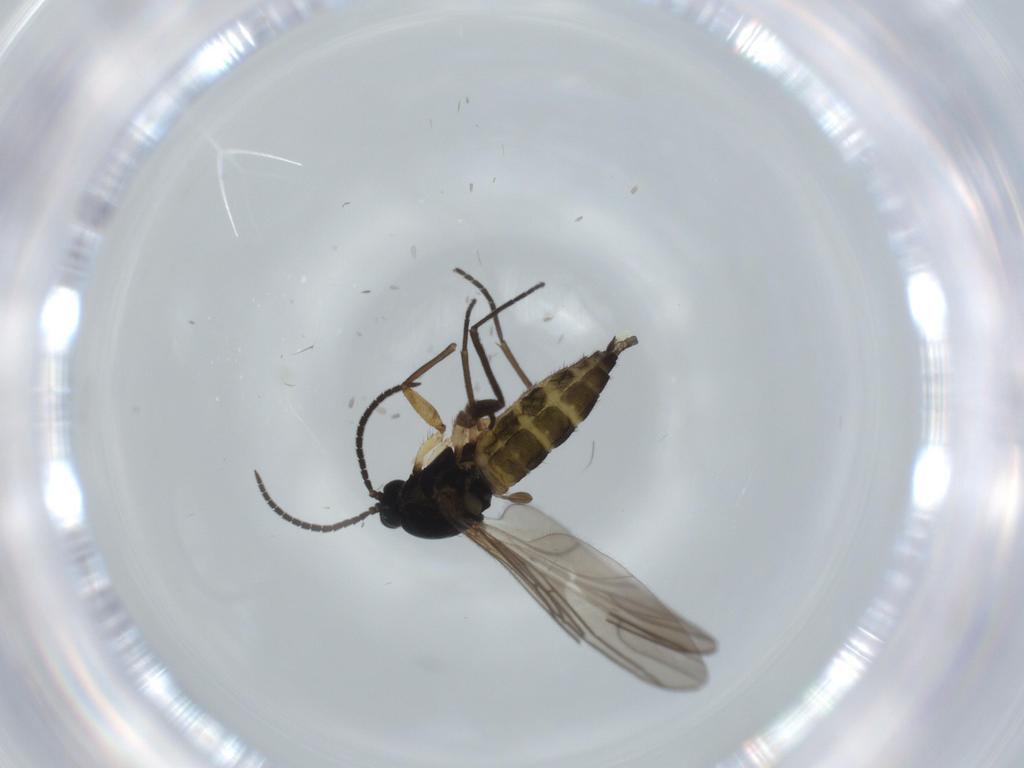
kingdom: Animalia
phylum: Arthropoda
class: Insecta
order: Diptera
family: Sciaridae
